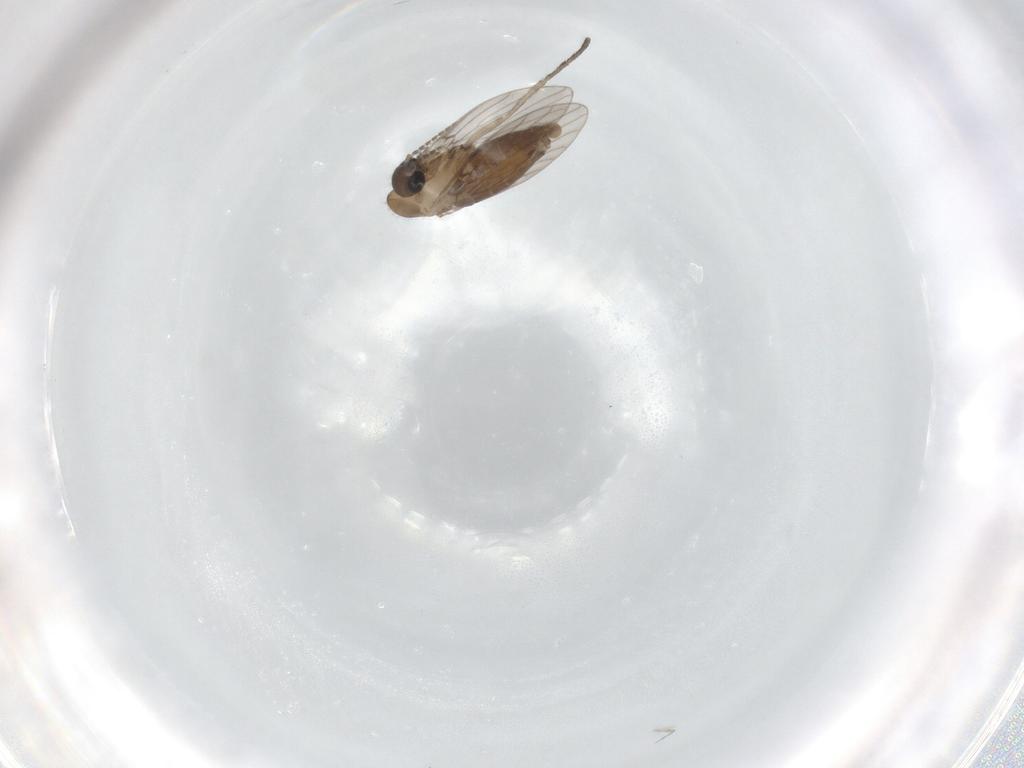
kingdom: Animalia
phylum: Arthropoda
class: Insecta
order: Diptera
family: Psychodidae
